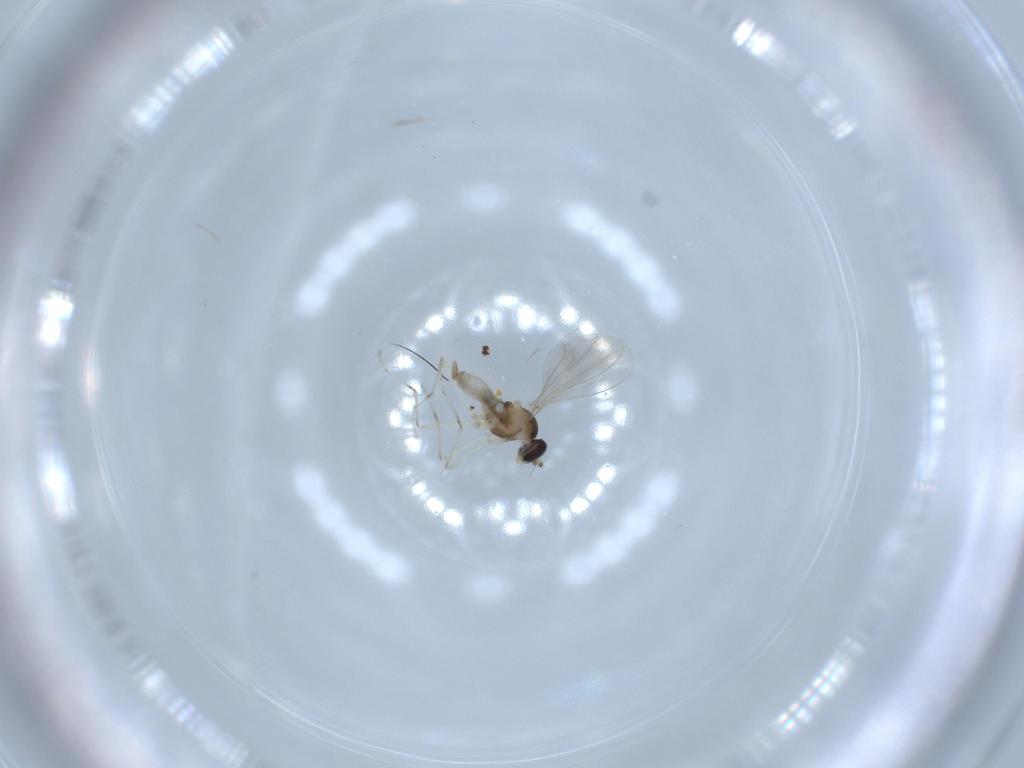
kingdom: Animalia
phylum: Arthropoda
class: Insecta
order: Diptera
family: Cecidomyiidae
